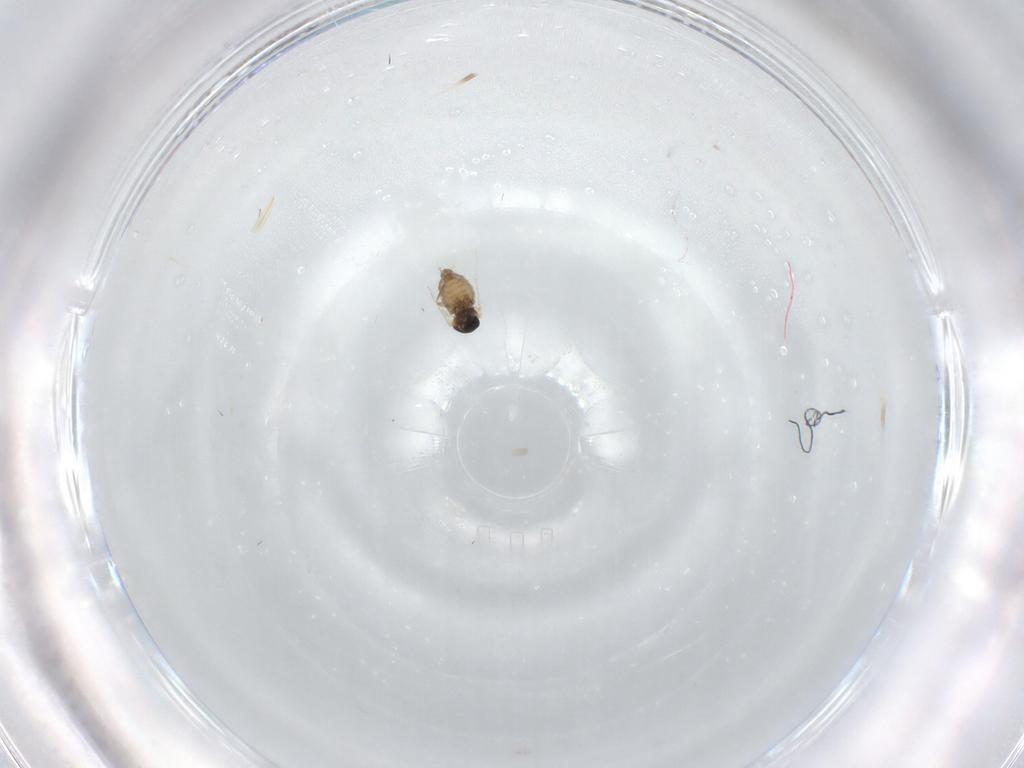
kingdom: Animalia
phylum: Arthropoda
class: Insecta
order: Diptera
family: Cecidomyiidae
